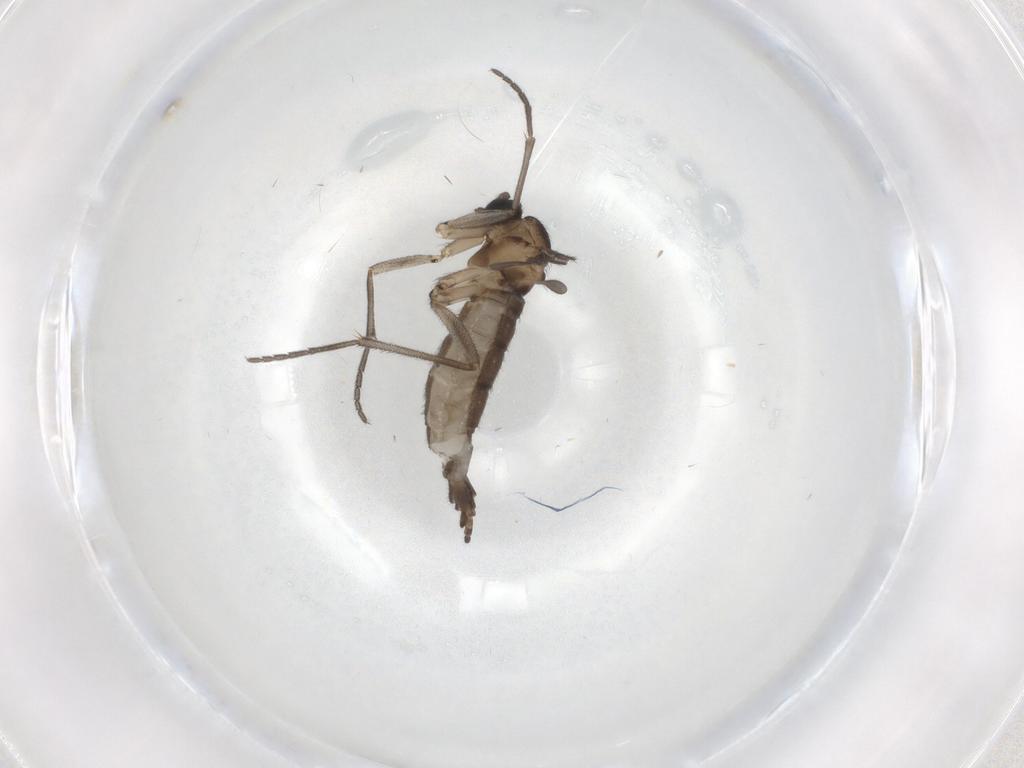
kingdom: Animalia
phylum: Arthropoda
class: Insecta
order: Diptera
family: Sciaridae
